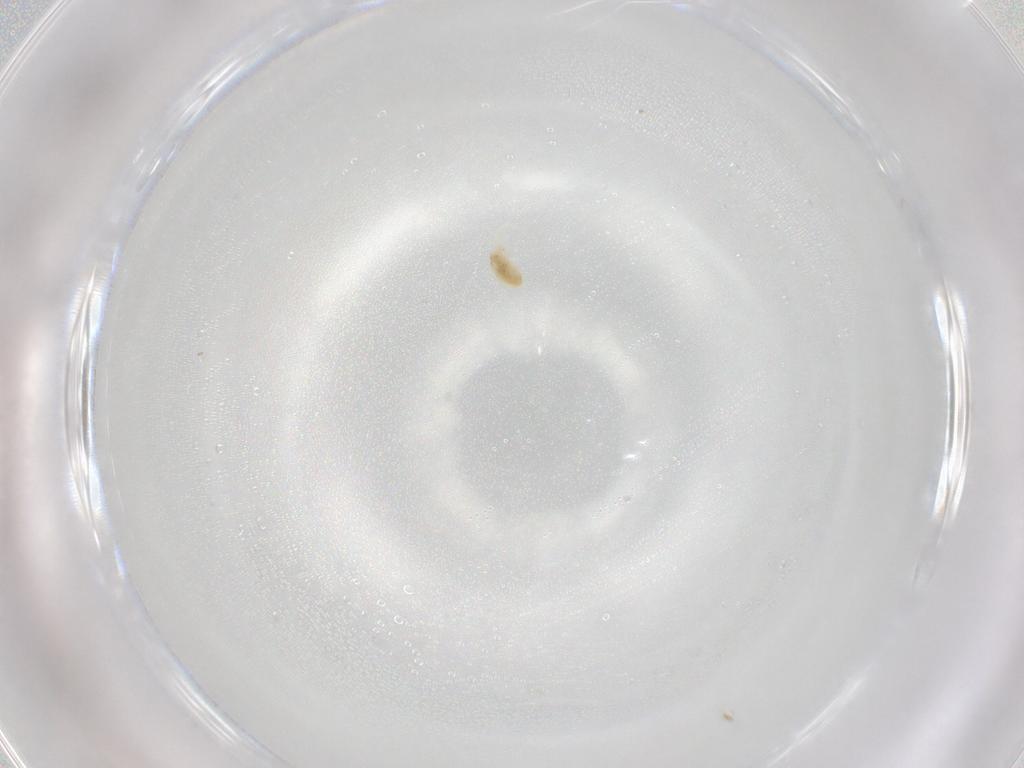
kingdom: Animalia
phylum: Arthropoda
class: Arachnida
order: Trombidiformes
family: Eupodidae
